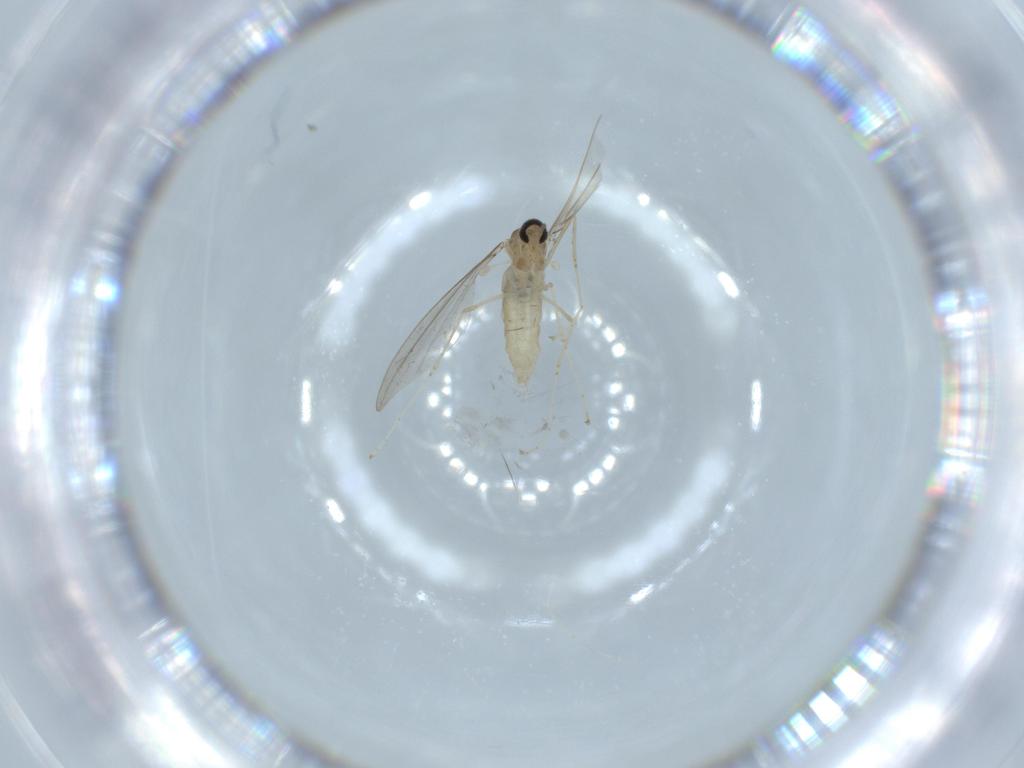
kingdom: Animalia
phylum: Arthropoda
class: Insecta
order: Diptera
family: Cecidomyiidae
